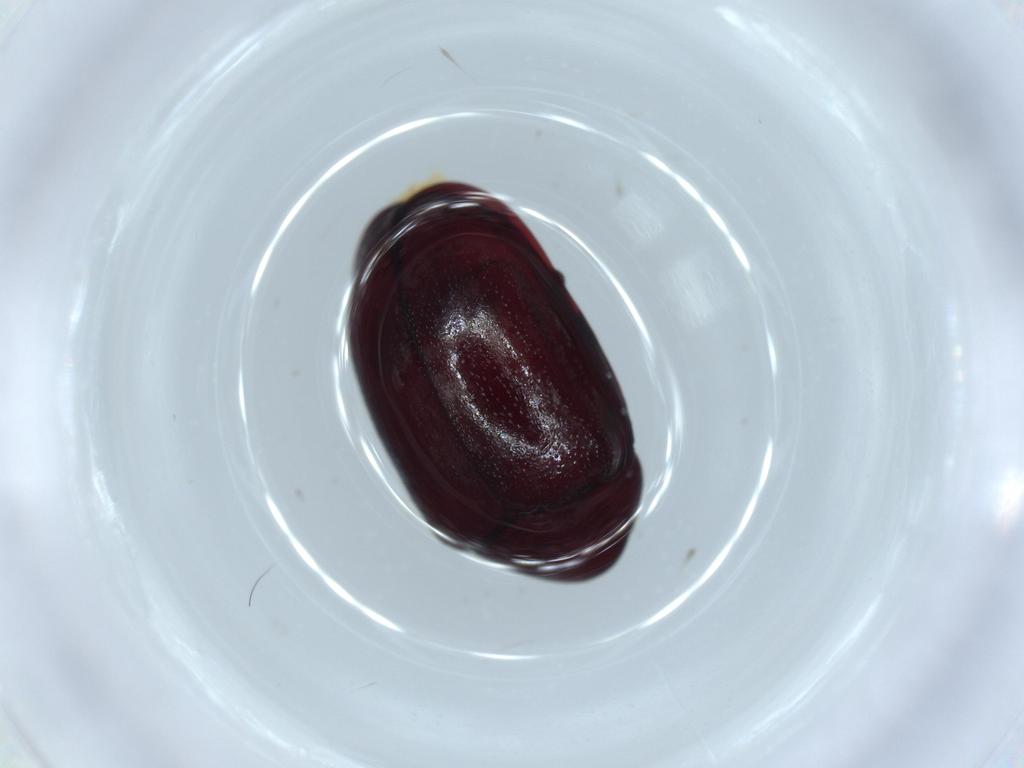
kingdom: Animalia
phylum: Arthropoda
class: Insecta
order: Coleoptera
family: Ptinidae
